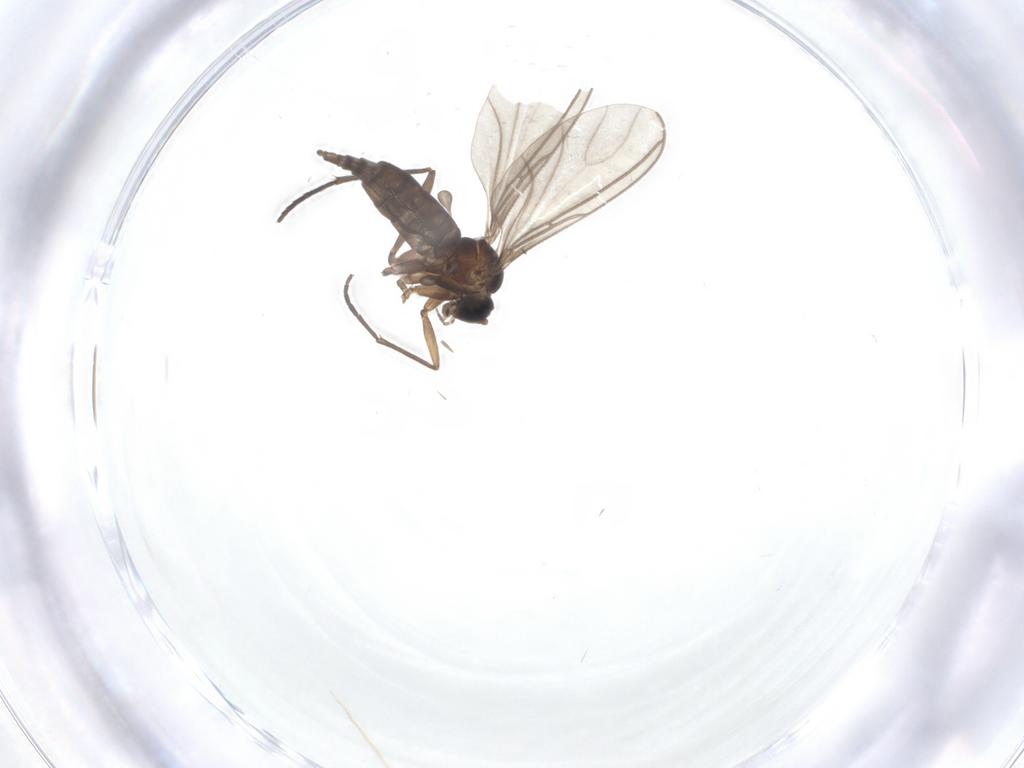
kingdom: Animalia
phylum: Arthropoda
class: Insecta
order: Diptera
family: Sciaridae
